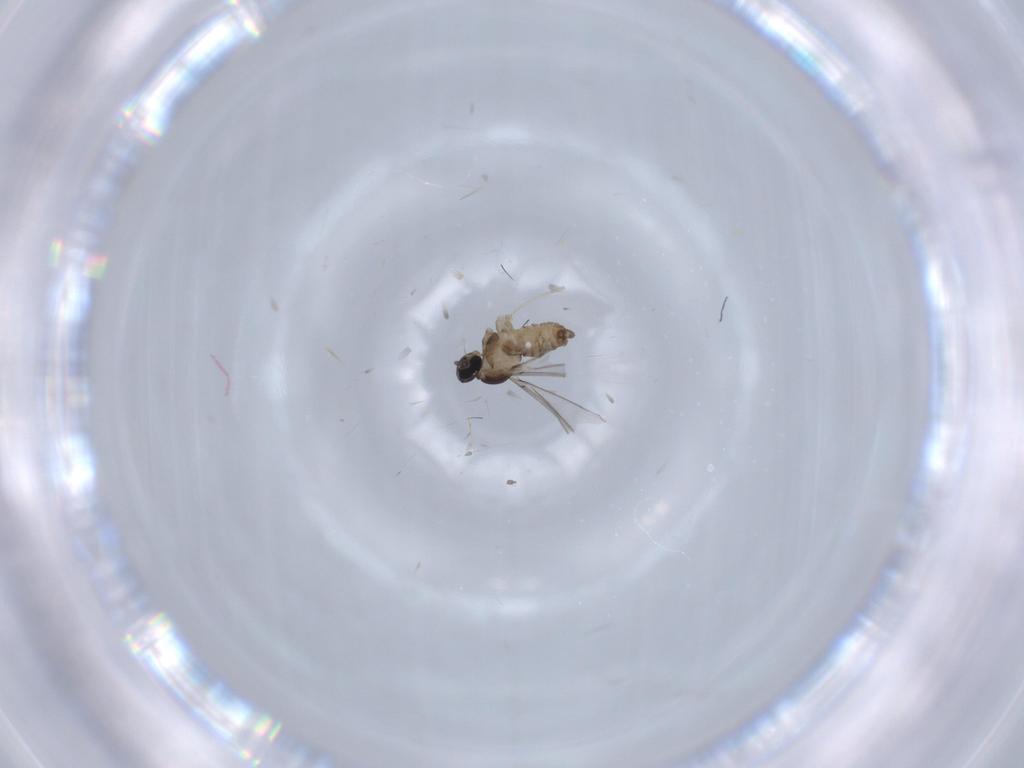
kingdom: Animalia
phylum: Arthropoda
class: Insecta
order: Diptera
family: Cecidomyiidae
